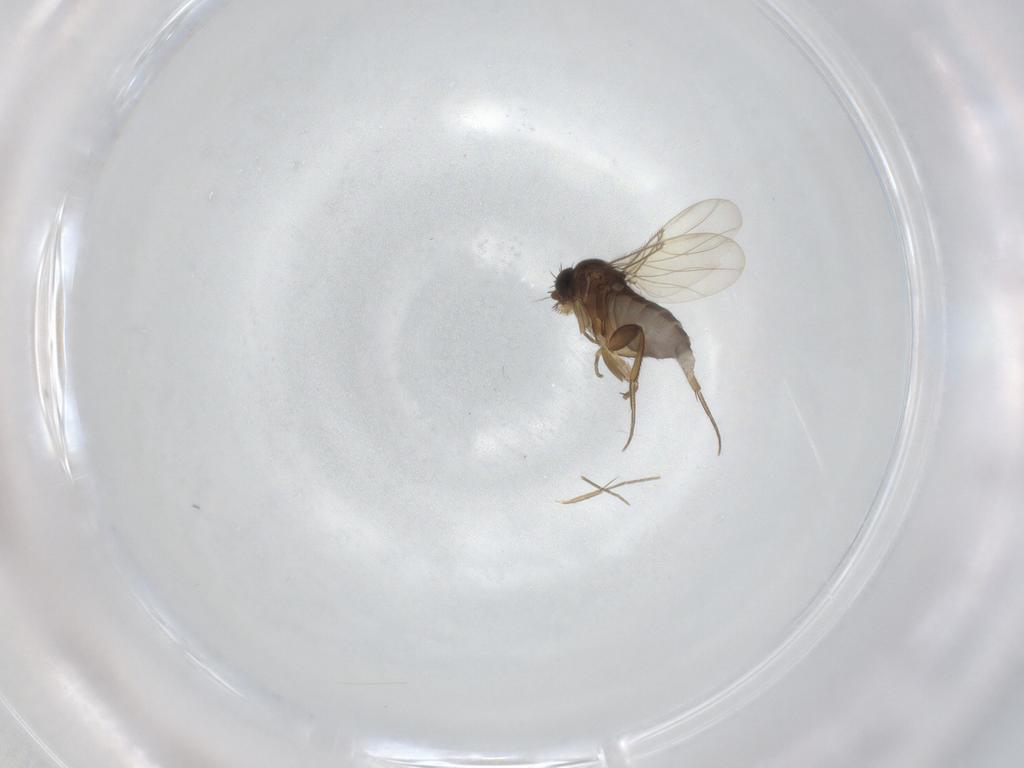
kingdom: Animalia
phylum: Arthropoda
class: Insecta
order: Diptera
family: Phoridae
